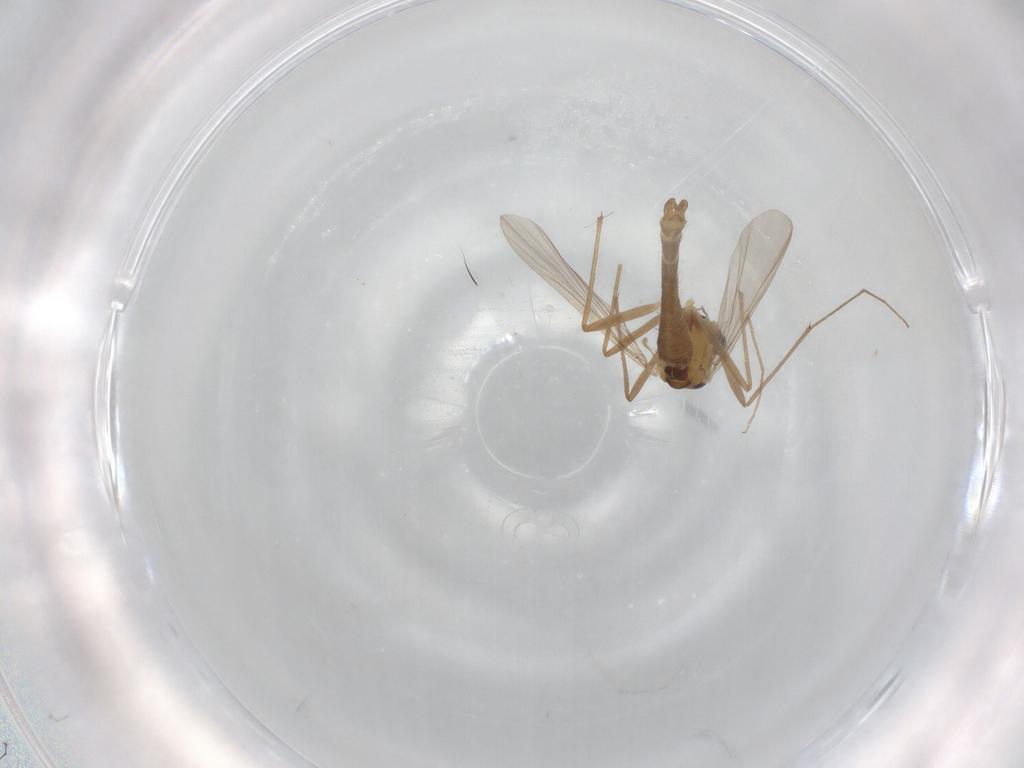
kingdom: Animalia
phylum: Arthropoda
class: Insecta
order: Diptera
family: Chironomidae
